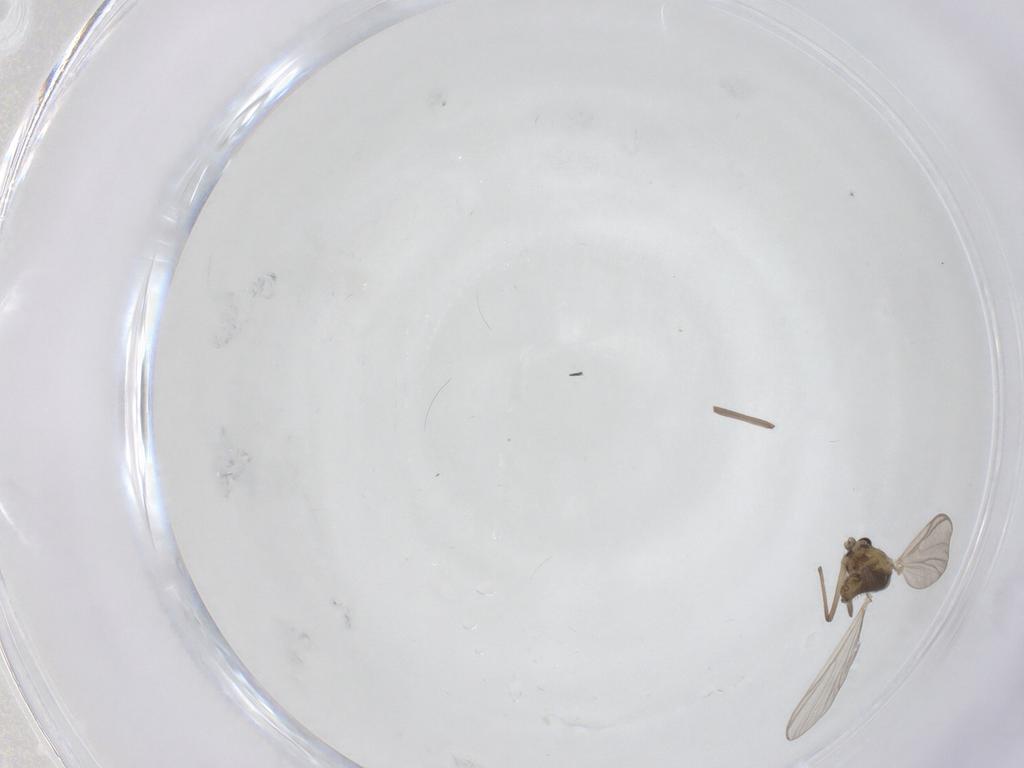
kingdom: Animalia
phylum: Arthropoda
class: Insecta
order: Diptera
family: Chironomidae
